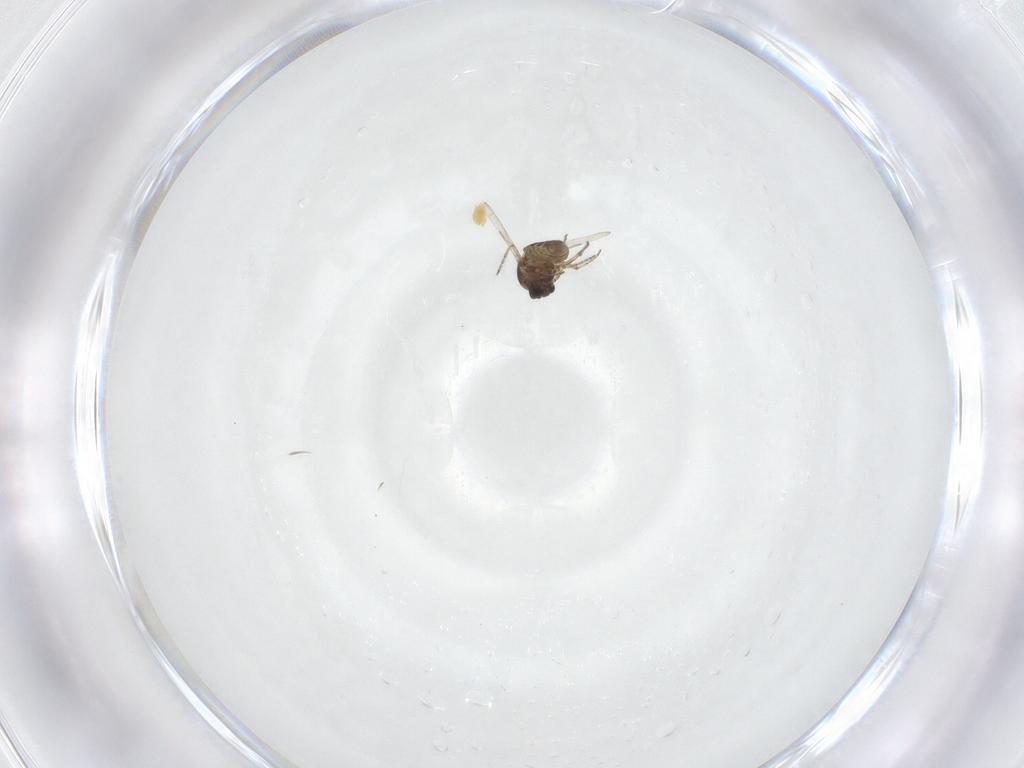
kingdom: Animalia
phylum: Arthropoda
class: Insecta
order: Diptera
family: Ceratopogonidae
